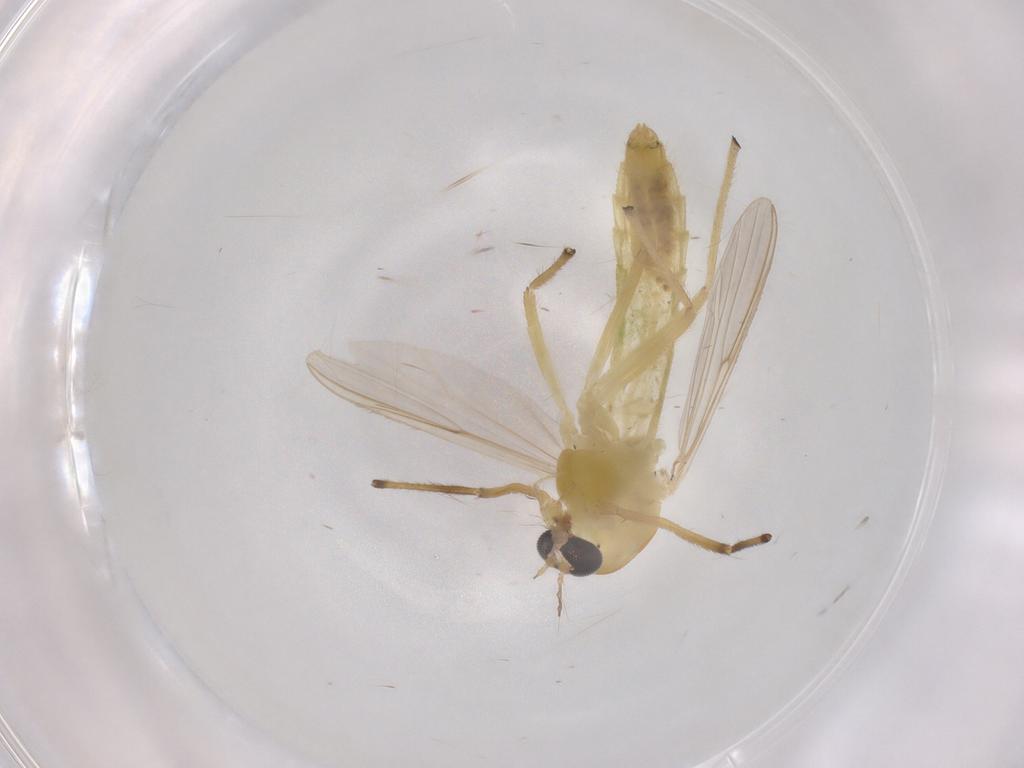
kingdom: Animalia
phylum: Arthropoda
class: Insecta
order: Diptera
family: Chironomidae
